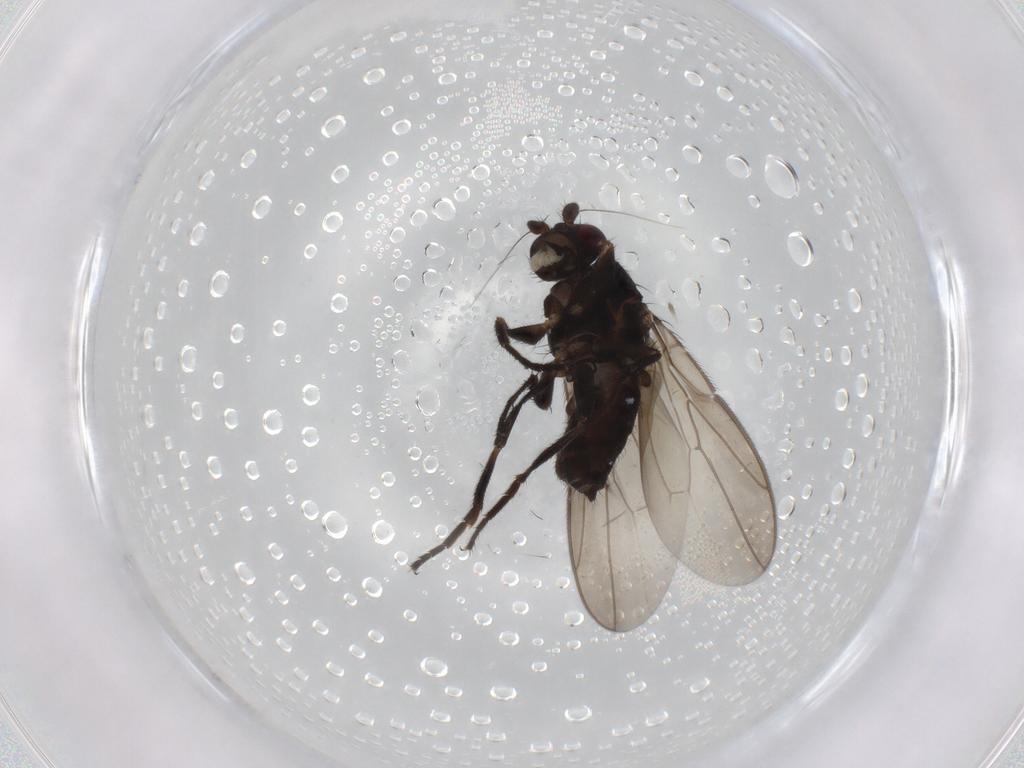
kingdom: Animalia
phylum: Arthropoda
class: Insecta
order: Diptera
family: Sphaeroceridae
